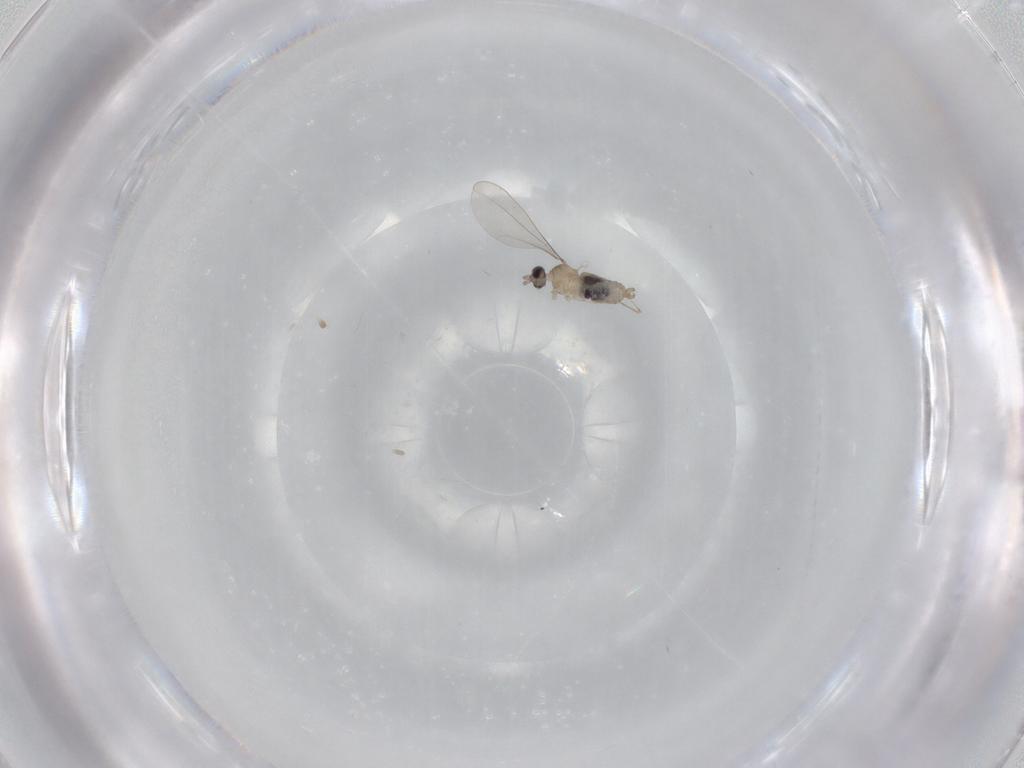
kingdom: Animalia
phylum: Arthropoda
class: Insecta
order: Diptera
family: Cecidomyiidae
